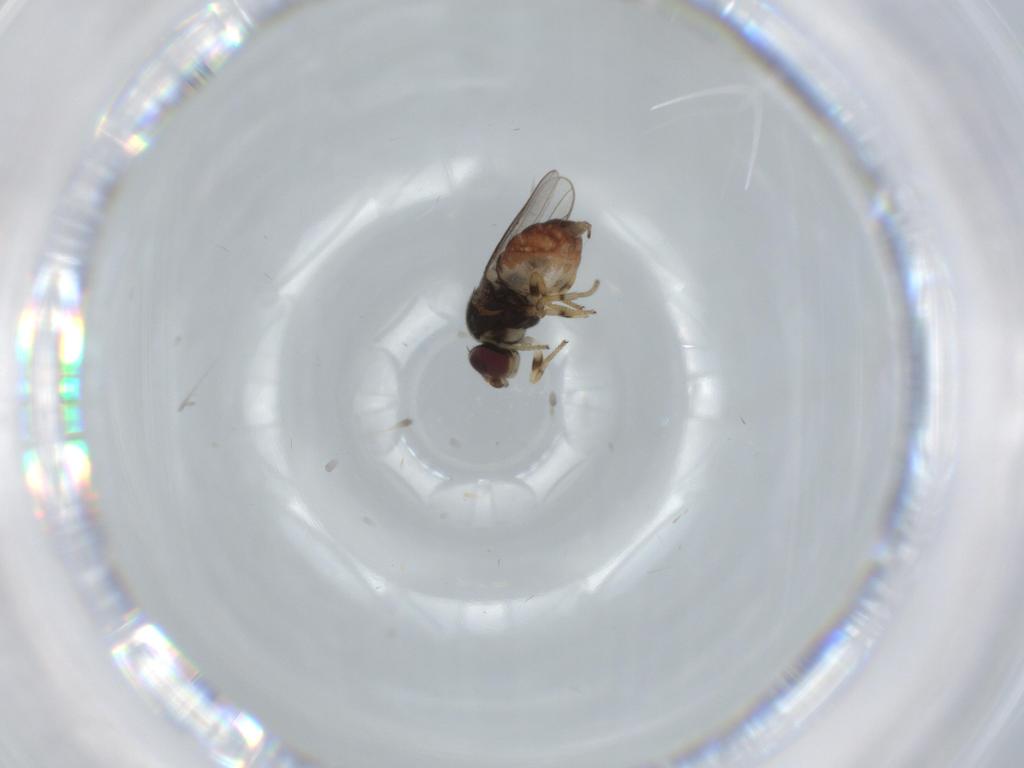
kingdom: Animalia
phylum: Arthropoda
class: Insecta
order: Diptera
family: Chloropidae
